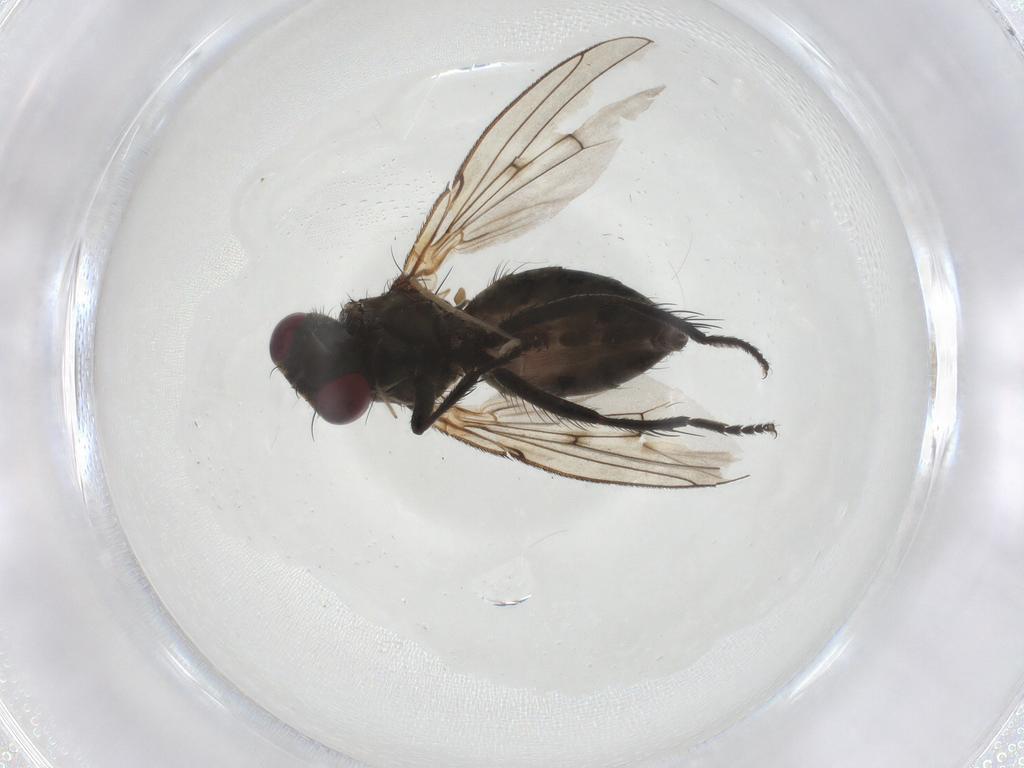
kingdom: Animalia
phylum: Arthropoda
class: Insecta
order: Diptera
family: Muscidae
